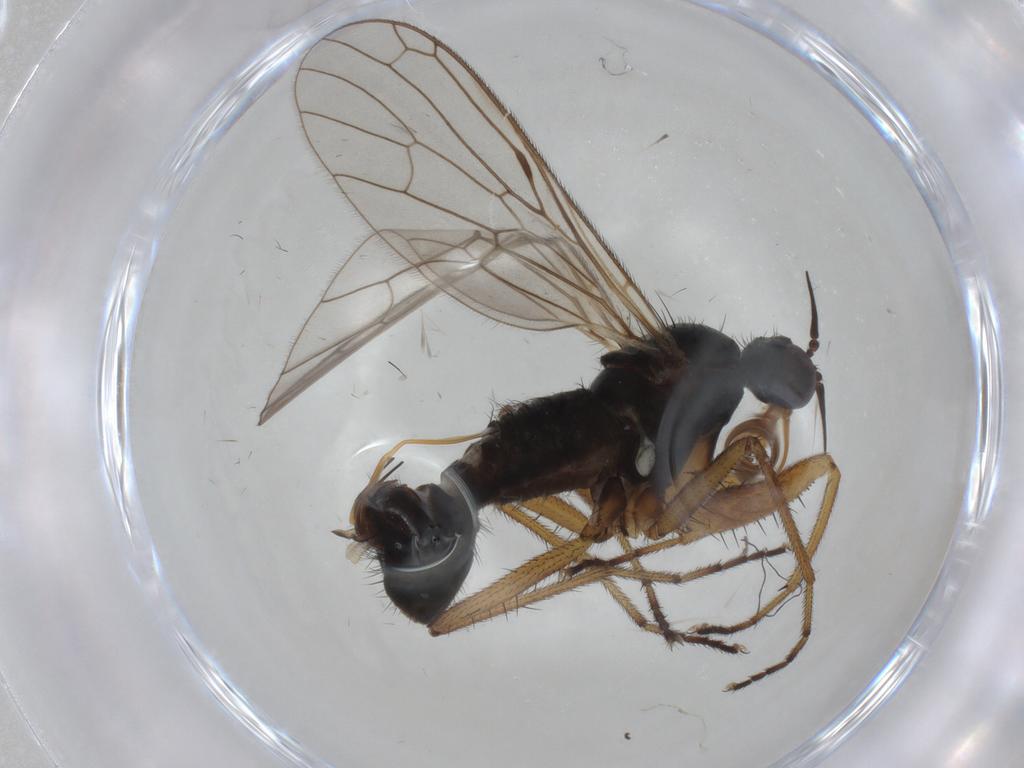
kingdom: Animalia
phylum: Arthropoda
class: Insecta
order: Diptera
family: Empididae
